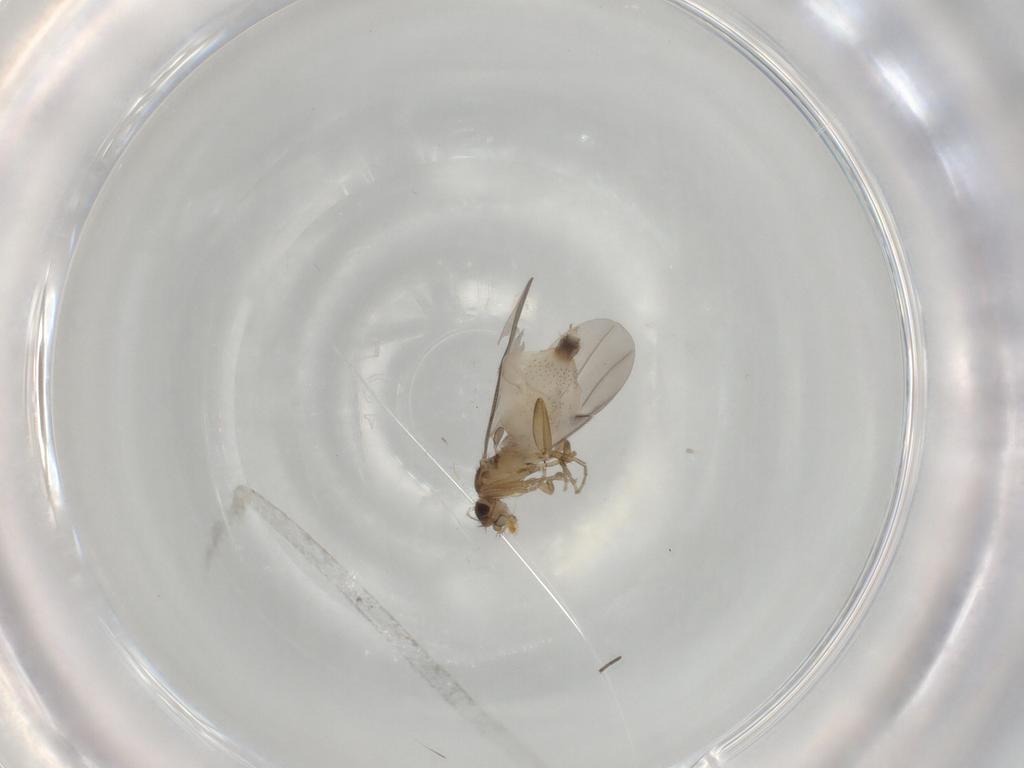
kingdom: Animalia
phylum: Arthropoda
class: Insecta
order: Diptera
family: Phoridae
